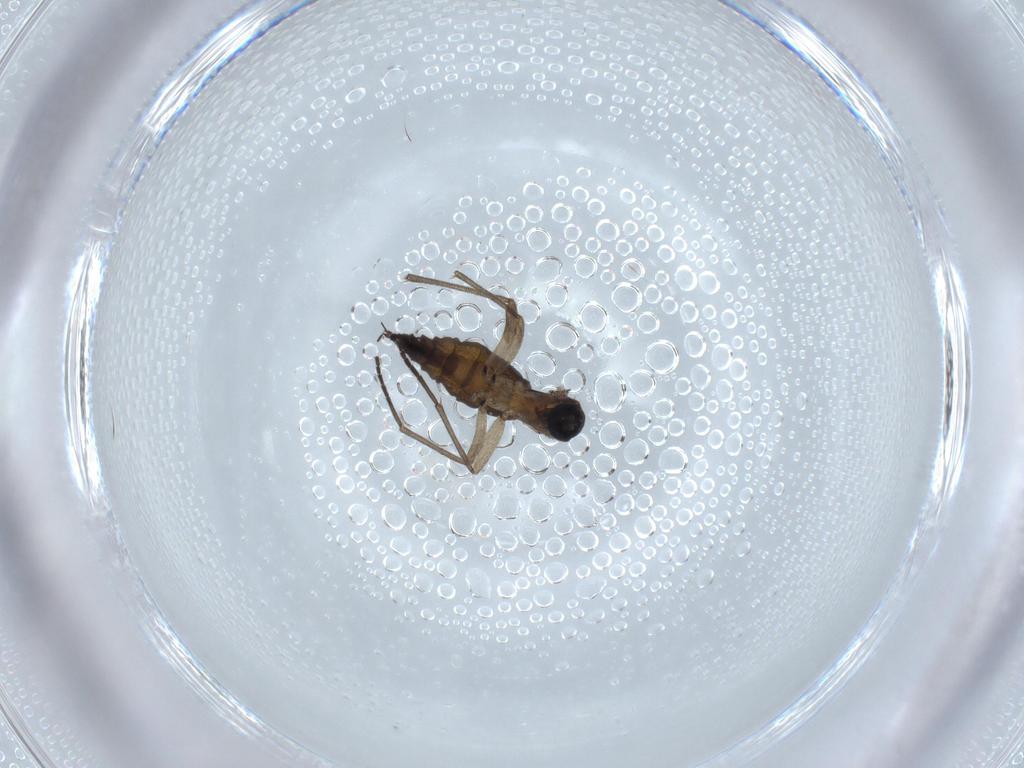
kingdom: Animalia
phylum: Arthropoda
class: Insecta
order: Diptera
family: Sciaridae
